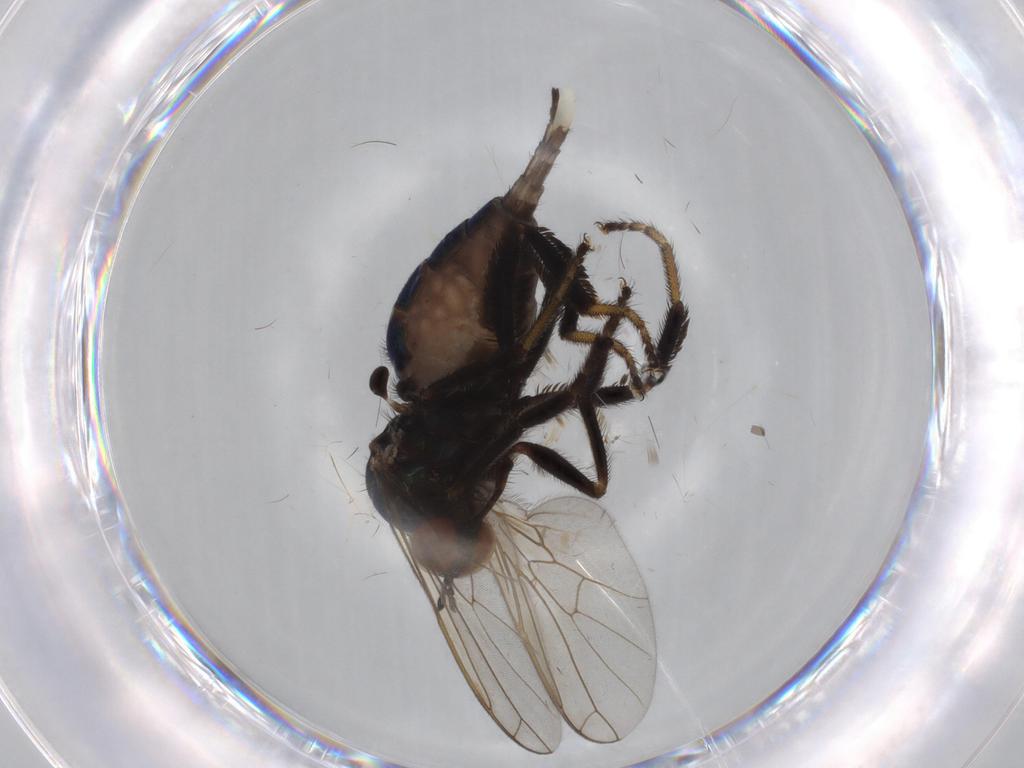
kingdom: Animalia
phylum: Arthropoda
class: Insecta
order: Diptera
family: Empididae
